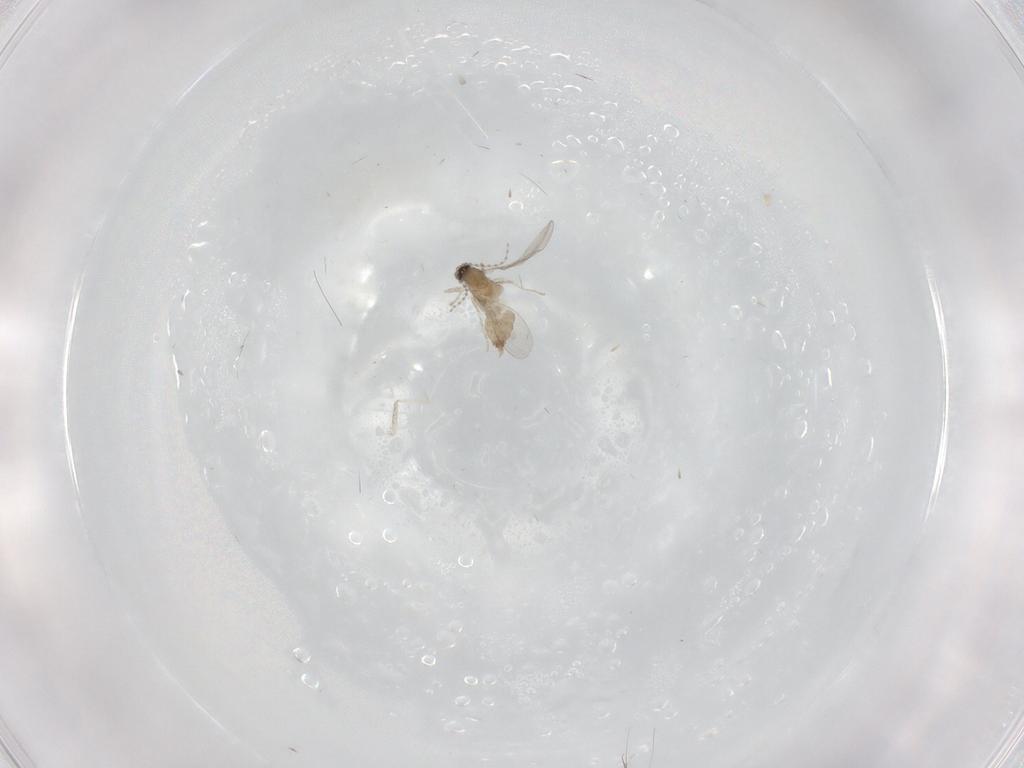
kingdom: Animalia
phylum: Arthropoda
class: Insecta
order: Diptera
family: Cecidomyiidae
